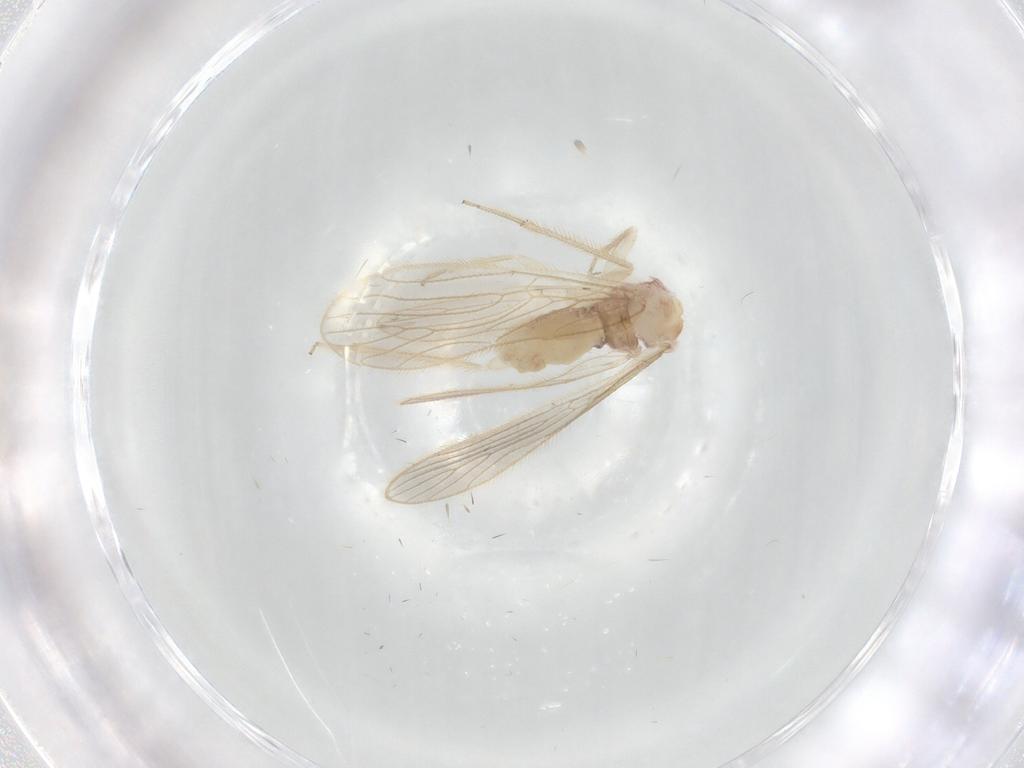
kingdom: Animalia
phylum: Arthropoda
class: Insecta
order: Psocodea
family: Cladiopsocidae
